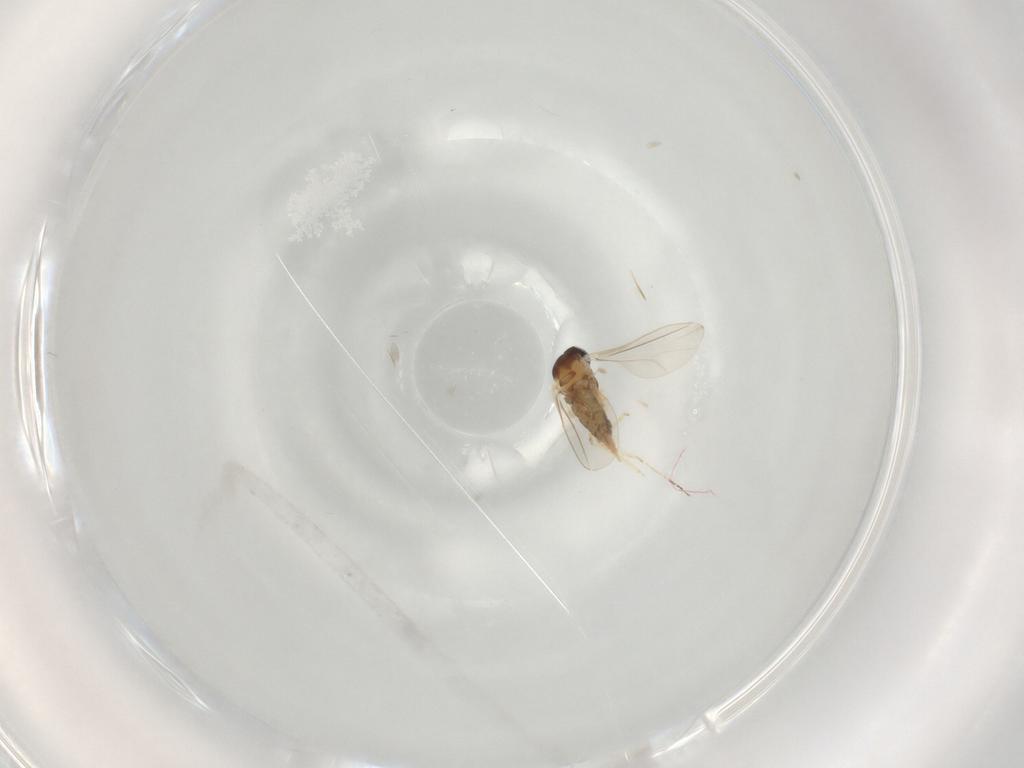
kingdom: Animalia
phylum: Arthropoda
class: Insecta
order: Diptera
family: Cecidomyiidae
